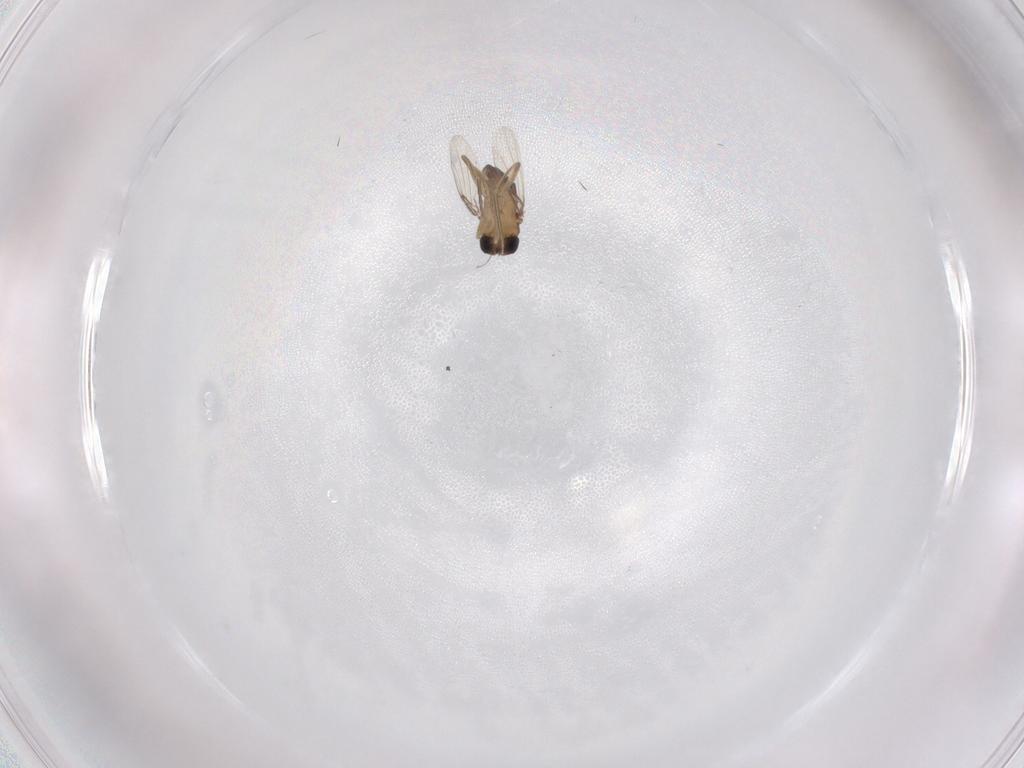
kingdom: Animalia
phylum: Arthropoda
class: Insecta
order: Diptera
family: Phoridae
